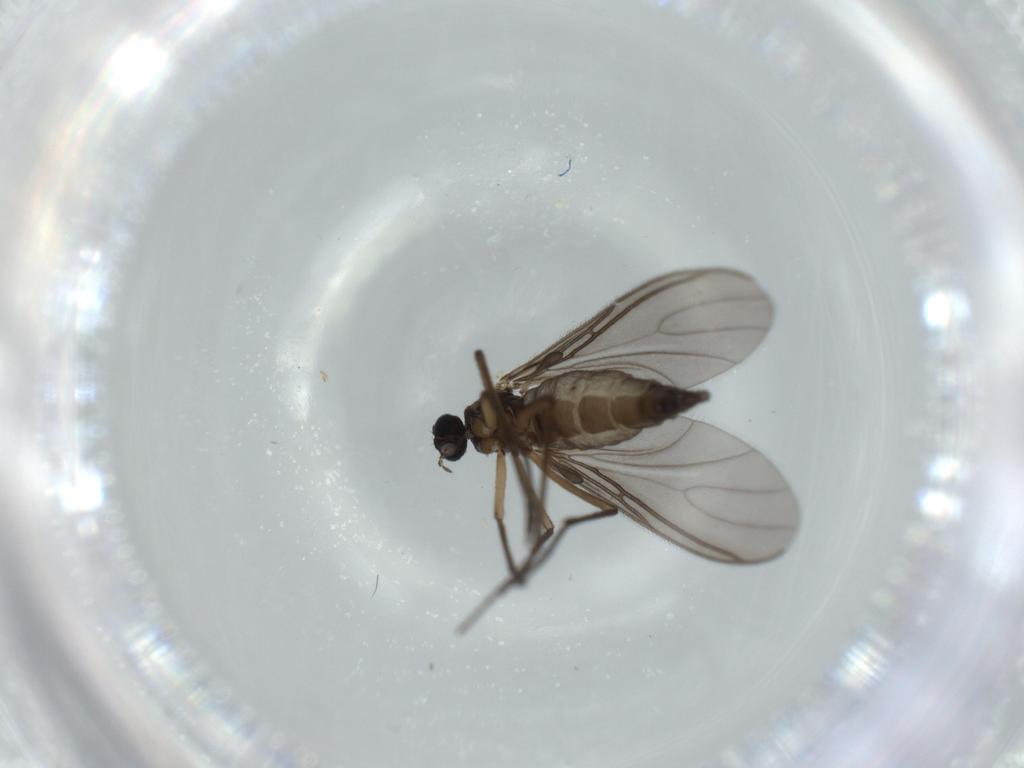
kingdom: Animalia
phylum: Arthropoda
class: Insecta
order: Diptera
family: Sciaridae
